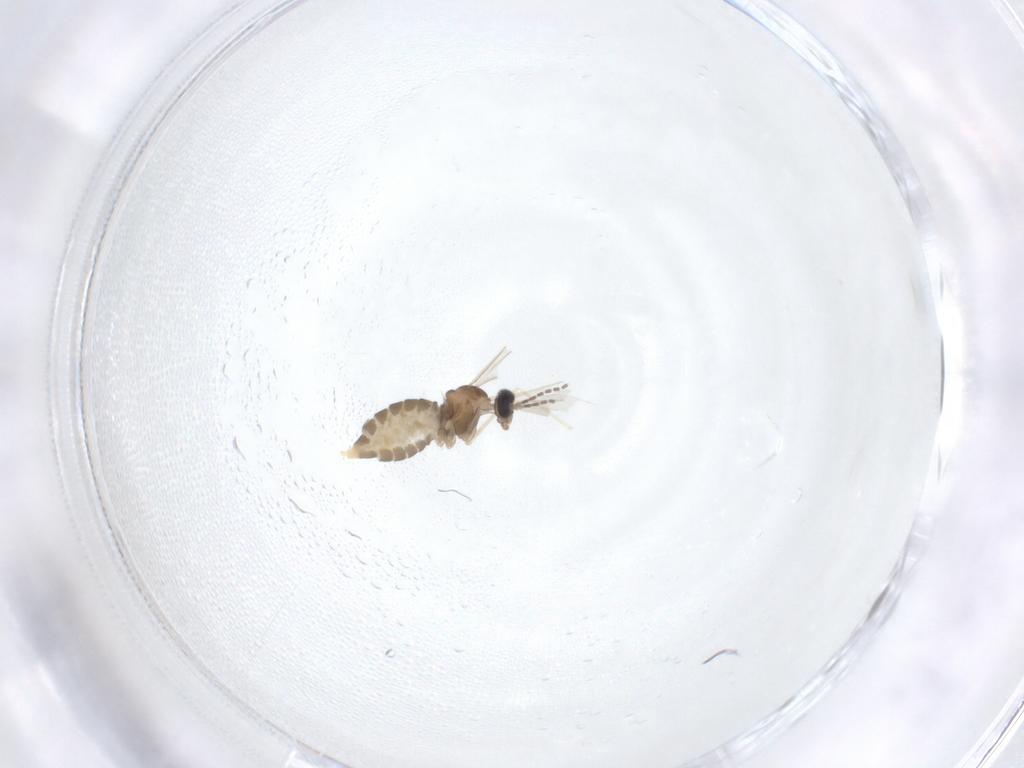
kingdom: Animalia
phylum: Arthropoda
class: Insecta
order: Diptera
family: Cecidomyiidae
